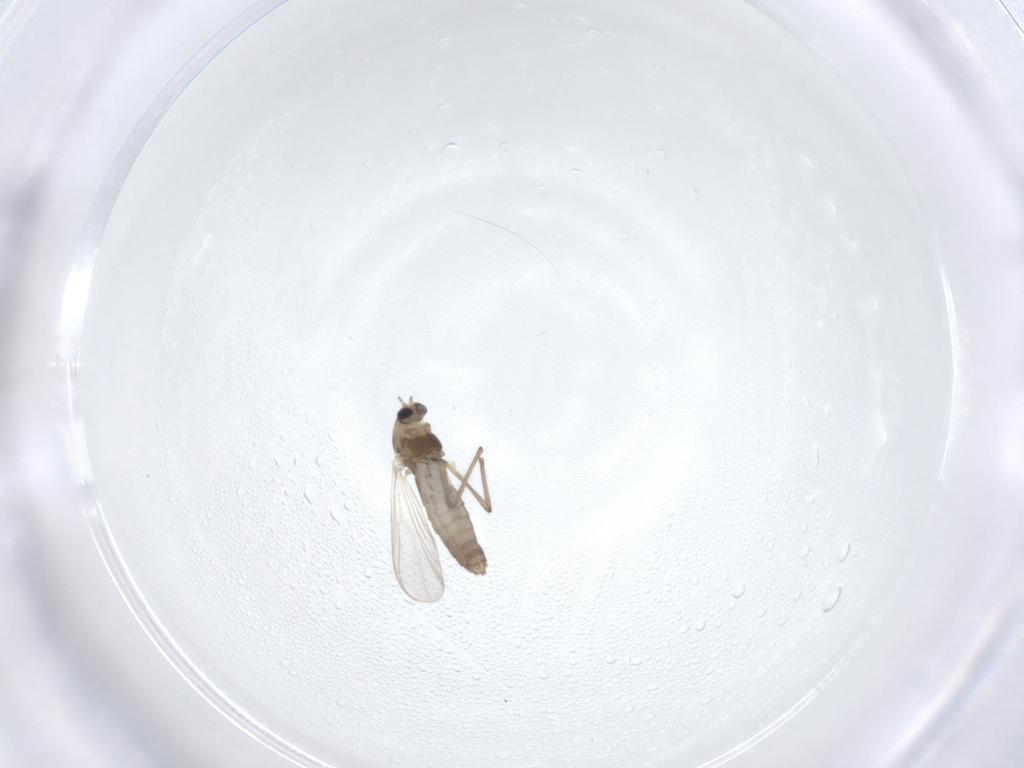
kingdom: Animalia
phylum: Arthropoda
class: Insecta
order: Diptera
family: Chironomidae
